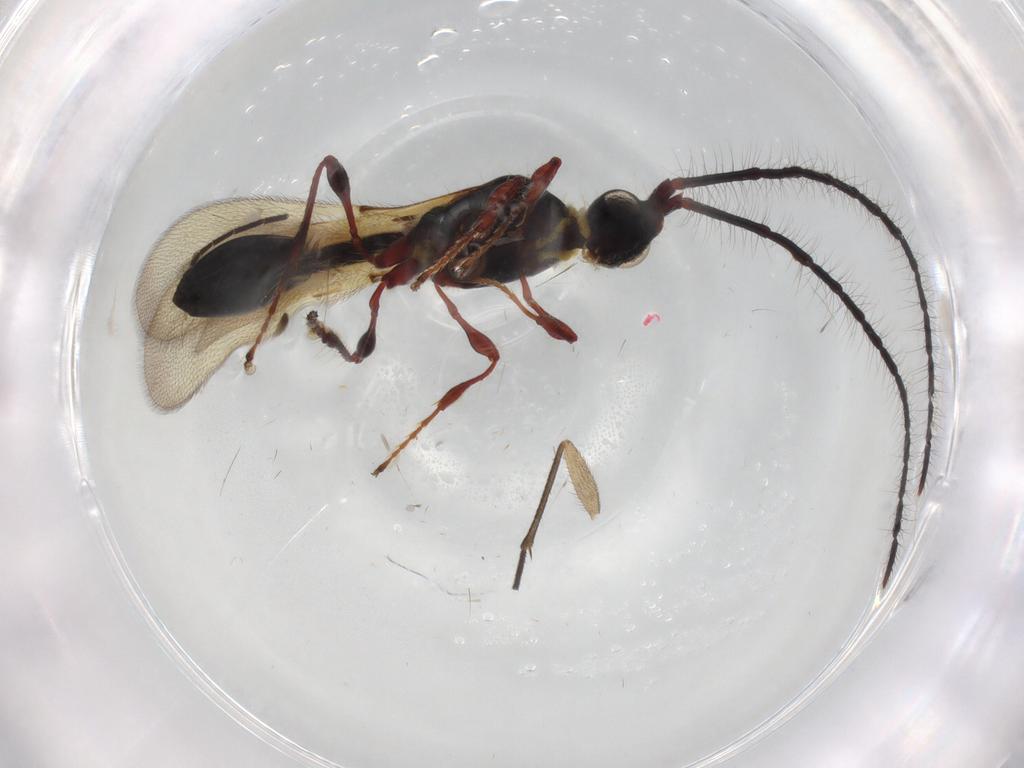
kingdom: Animalia
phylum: Arthropoda
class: Insecta
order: Hymenoptera
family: Diapriidae
